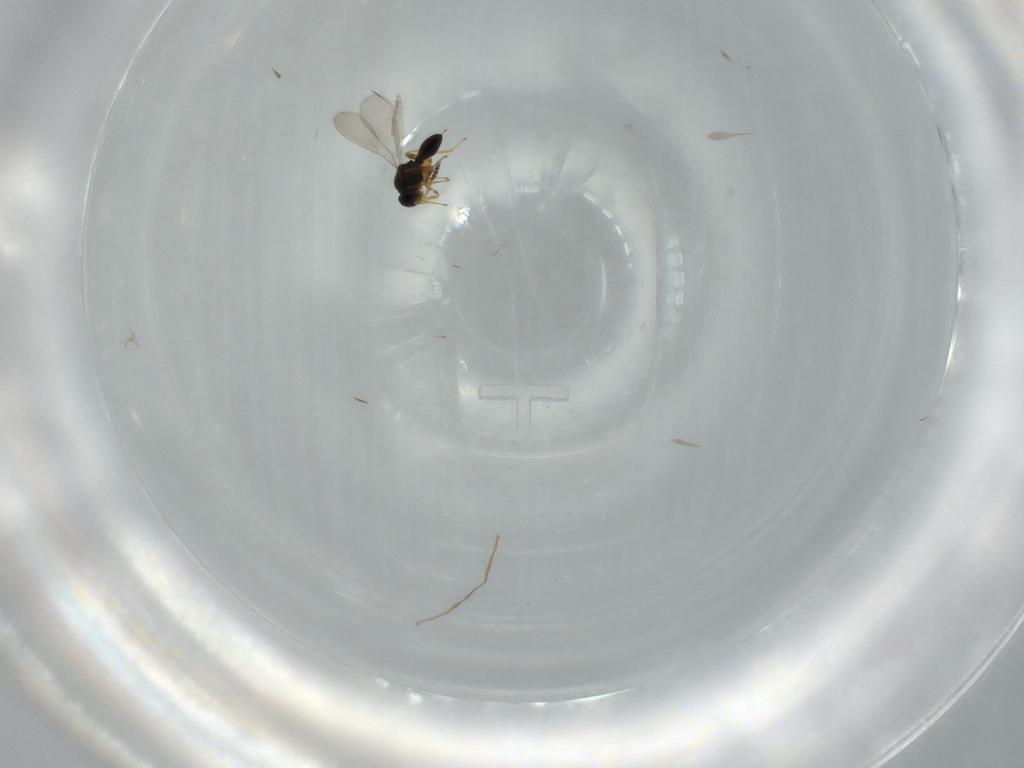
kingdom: Animalia
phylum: Arthropoda
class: Insecta
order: Hymenoptera
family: Platygastridae
